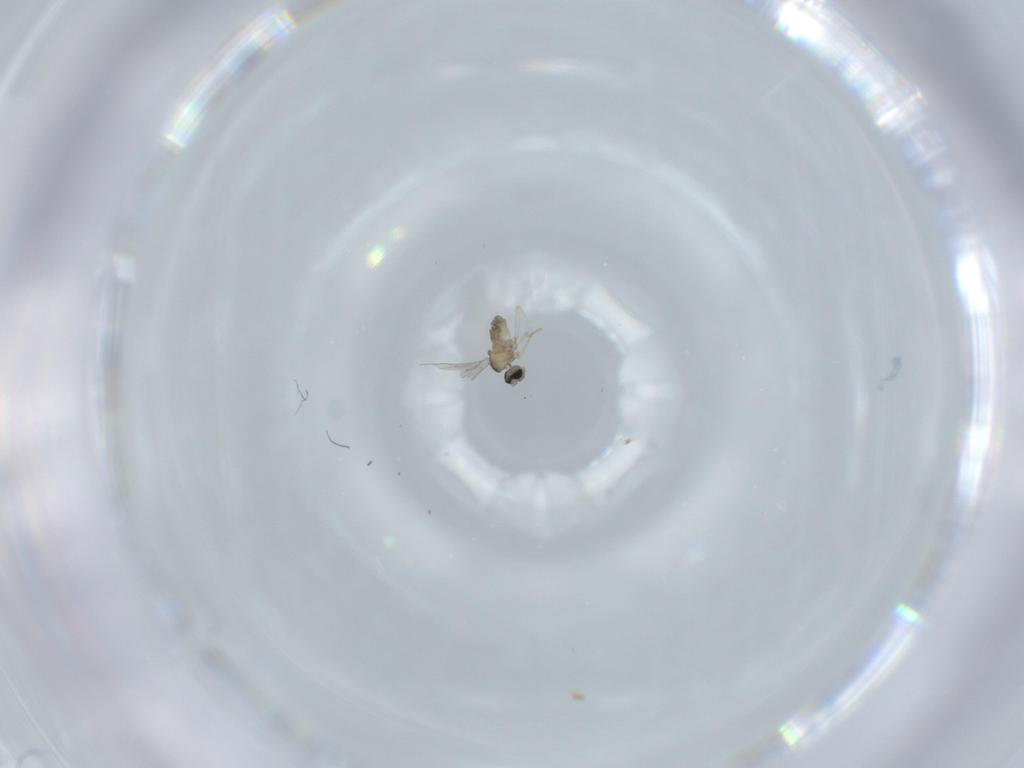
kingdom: Animalia
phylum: Arthropoda
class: Insecta
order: Diptera
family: Cecidomyiidae
